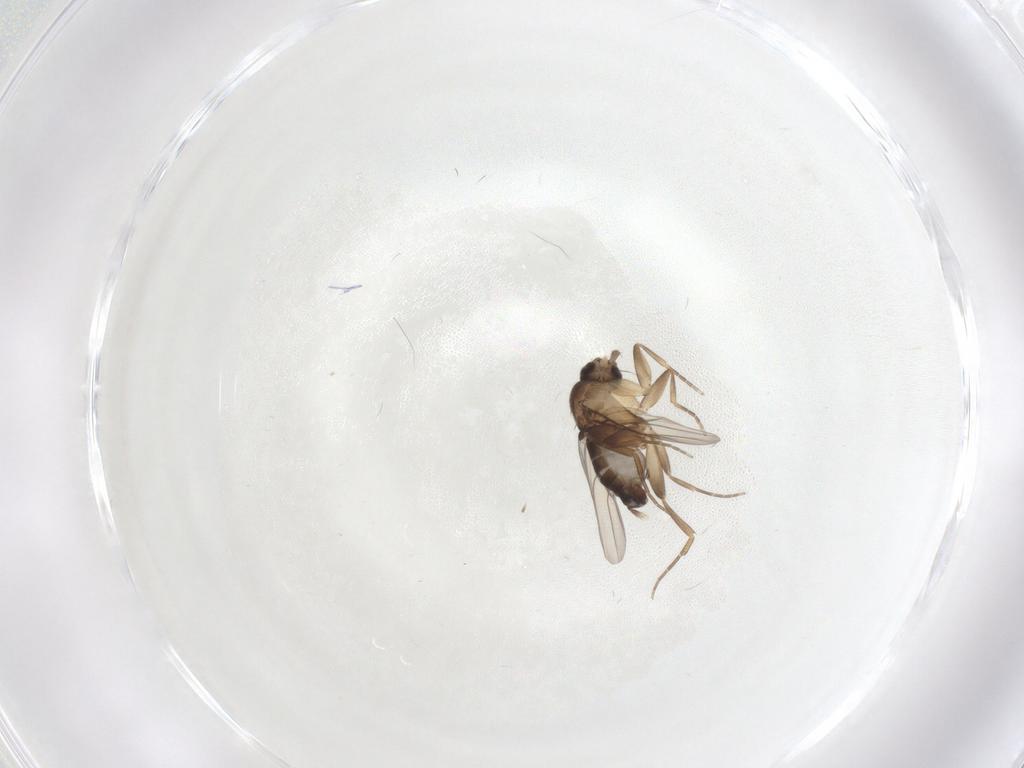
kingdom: Animalia
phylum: Arthropoda
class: Insecta
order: Diptera
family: Phoridae
